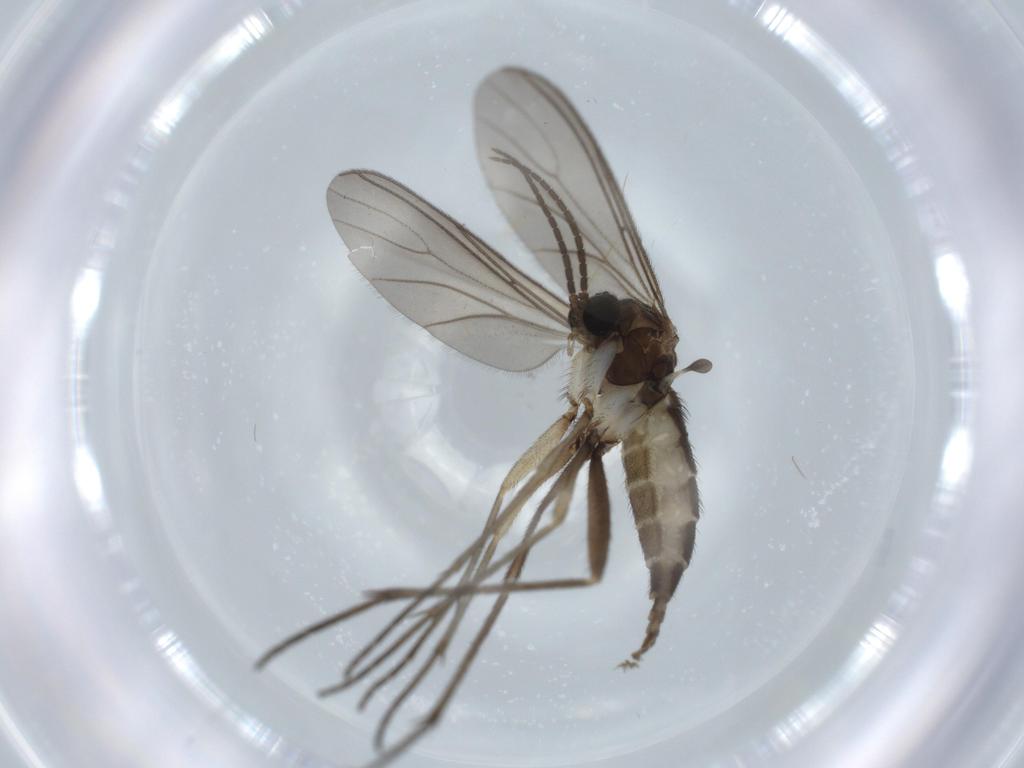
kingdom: Animalia
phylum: Arthropoda
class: Insecta
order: Diptera
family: Sciaridae
